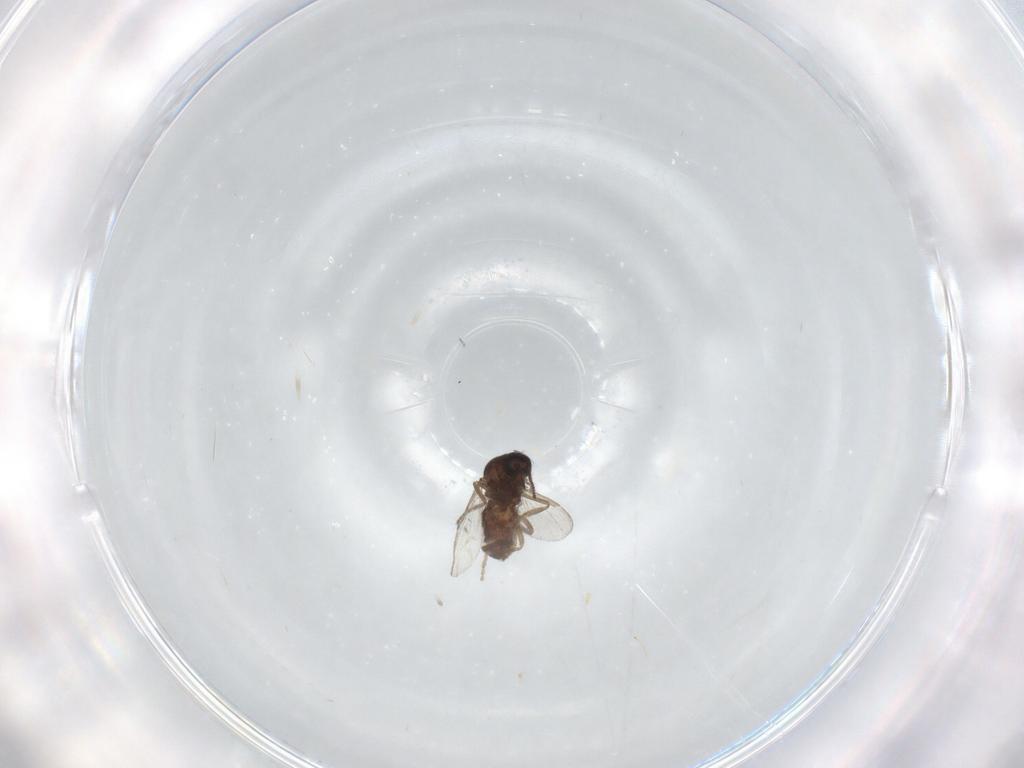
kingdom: Animalia
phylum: Arthropoda
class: Insecta
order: Diptera
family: Ceratopogonidae
